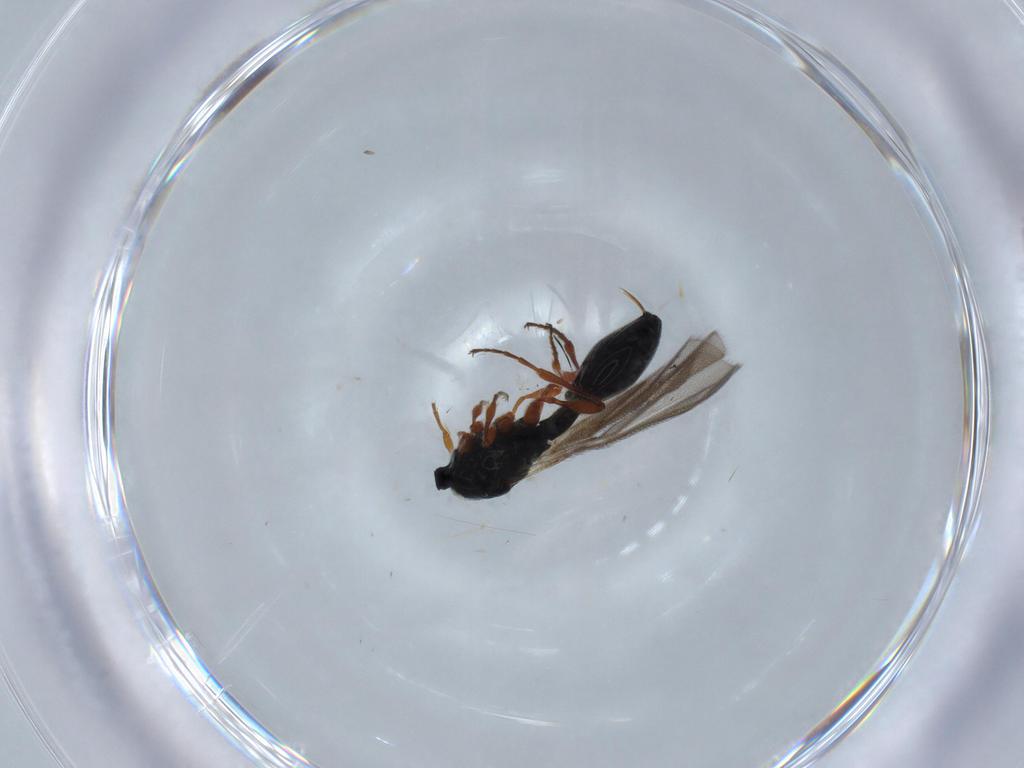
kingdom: Animalia
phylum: Arthropoda
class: Insecta
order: Hymenoptera
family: Diapriidae
